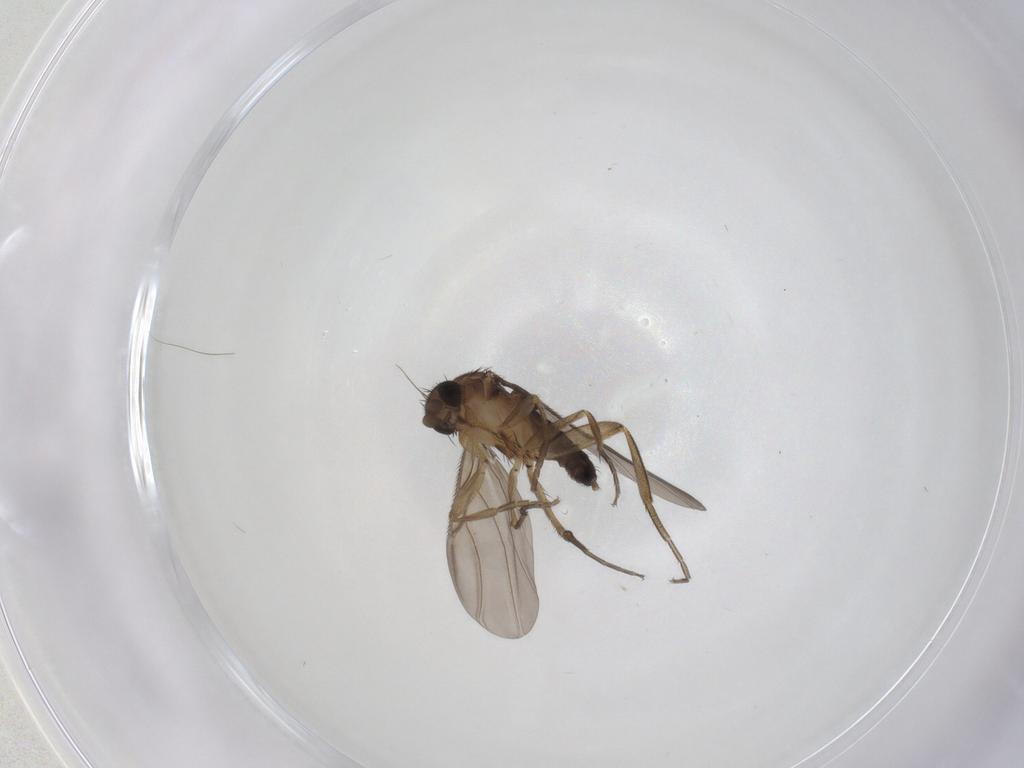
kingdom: Animalia
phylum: Arthropoda
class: Insecta
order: Diptera
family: Phoridae
